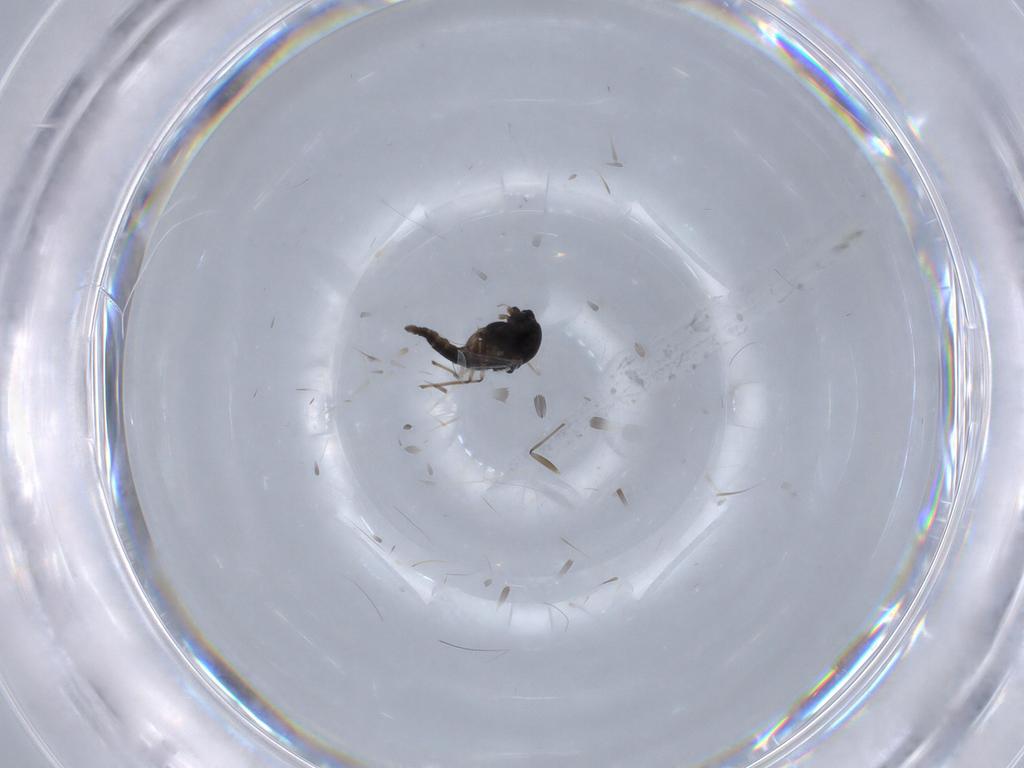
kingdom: Animalia
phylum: Arthropoda
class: Insecta
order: Diptera
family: Chironomidae
